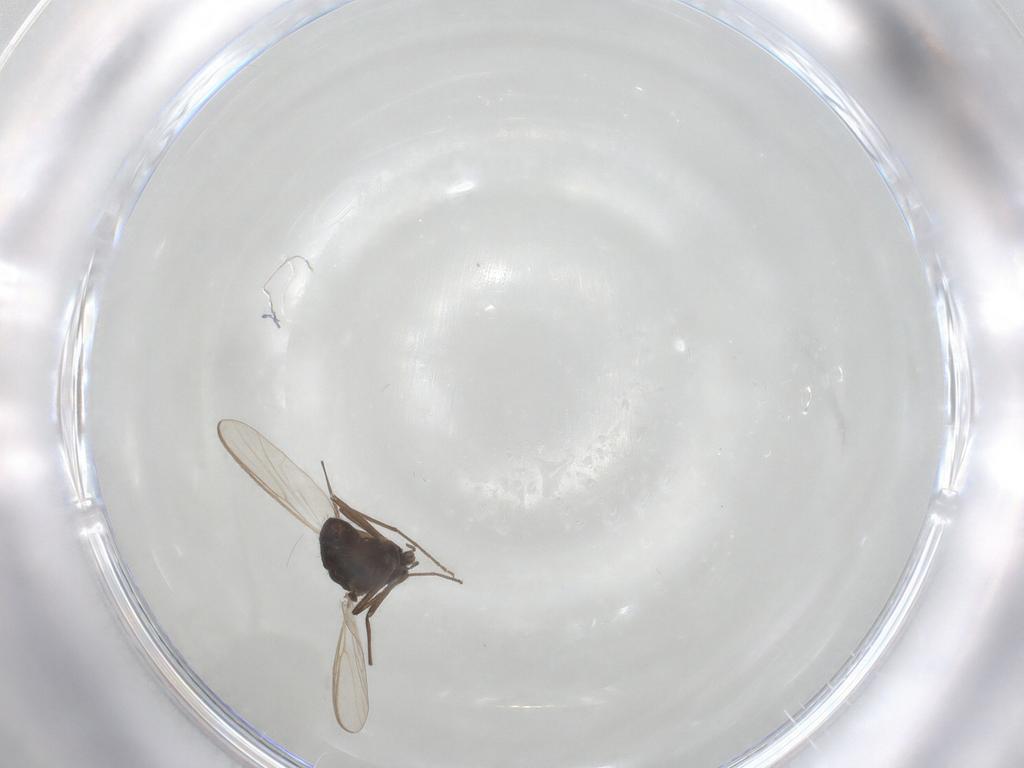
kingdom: Animalia
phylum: Arthropoda
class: Insecta
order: Diptera
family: Chironomidae
